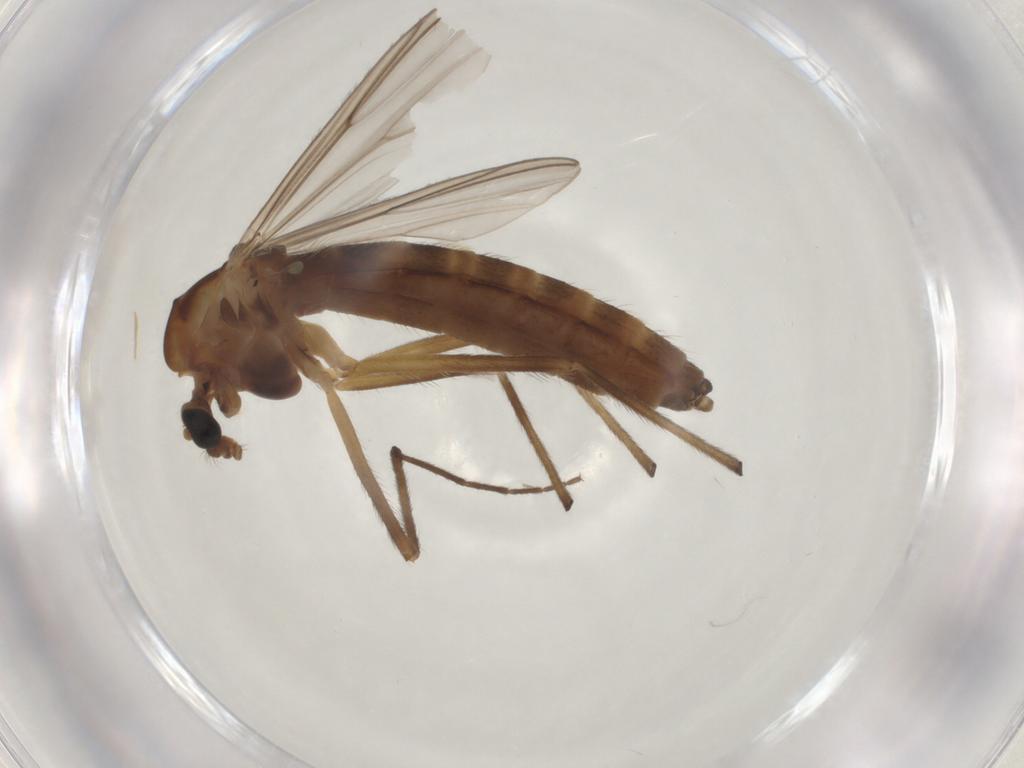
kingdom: Animalia
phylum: Arthropoda
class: Insecta
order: Diptera
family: Chironomidae
